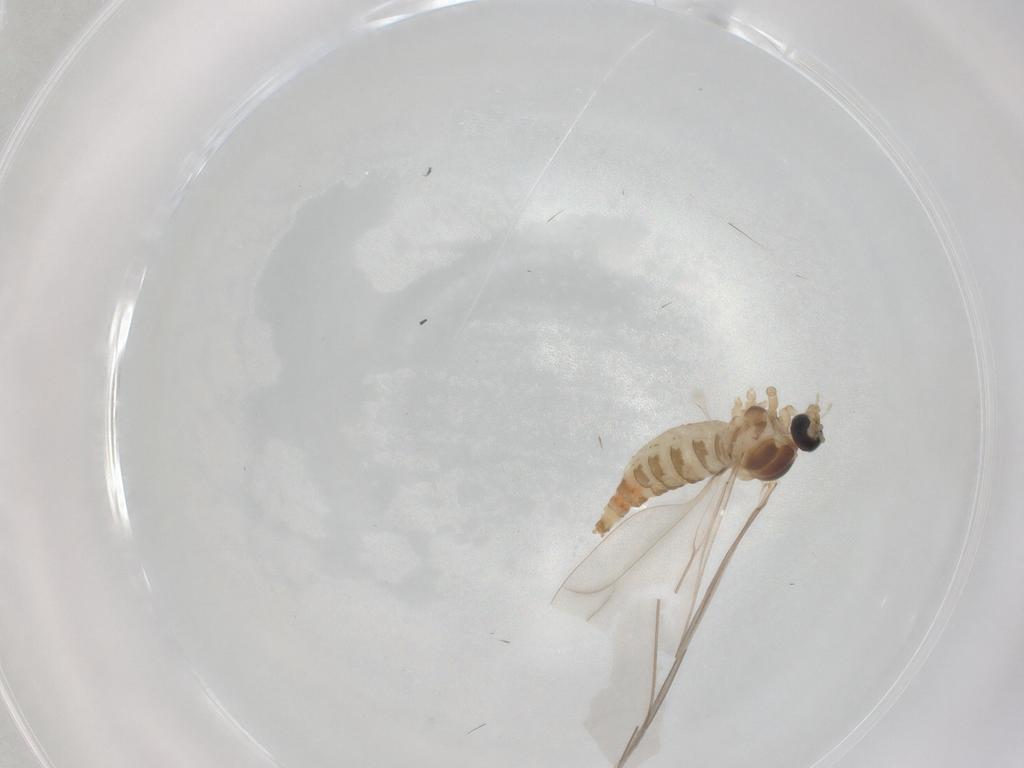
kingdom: Animalia
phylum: Arthropoda
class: Insecta
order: Diptera
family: Cecidomyiidae
